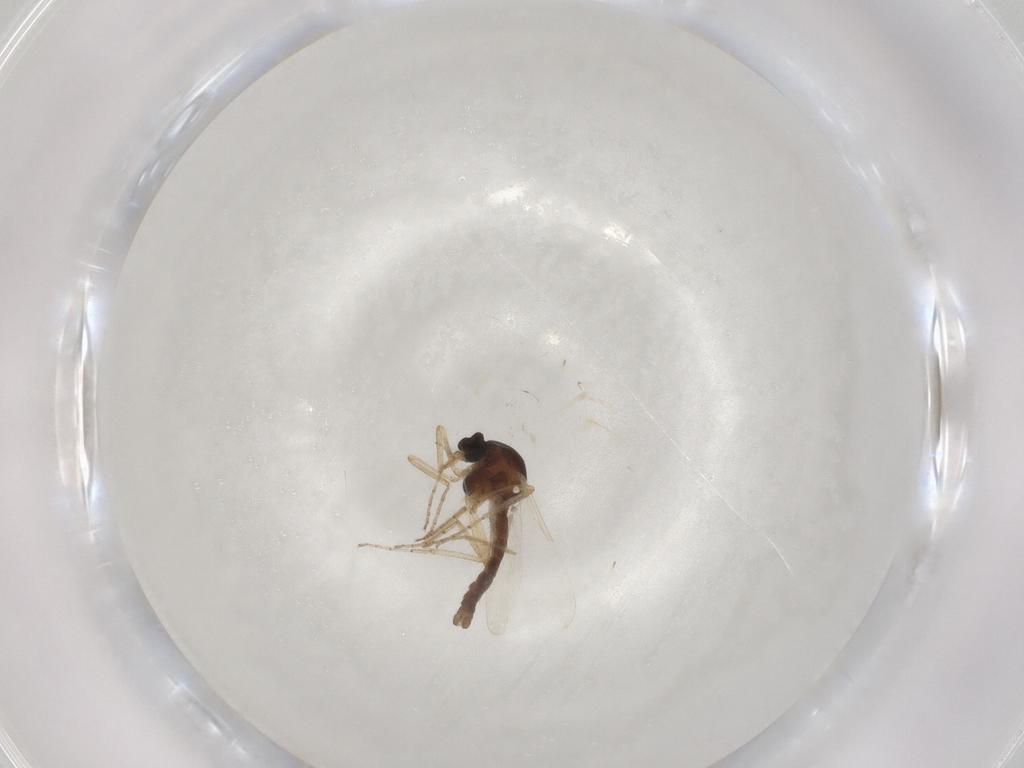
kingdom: Animalia
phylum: Arthropoda
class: Insecta
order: Diptera
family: Ceratopogonidae
